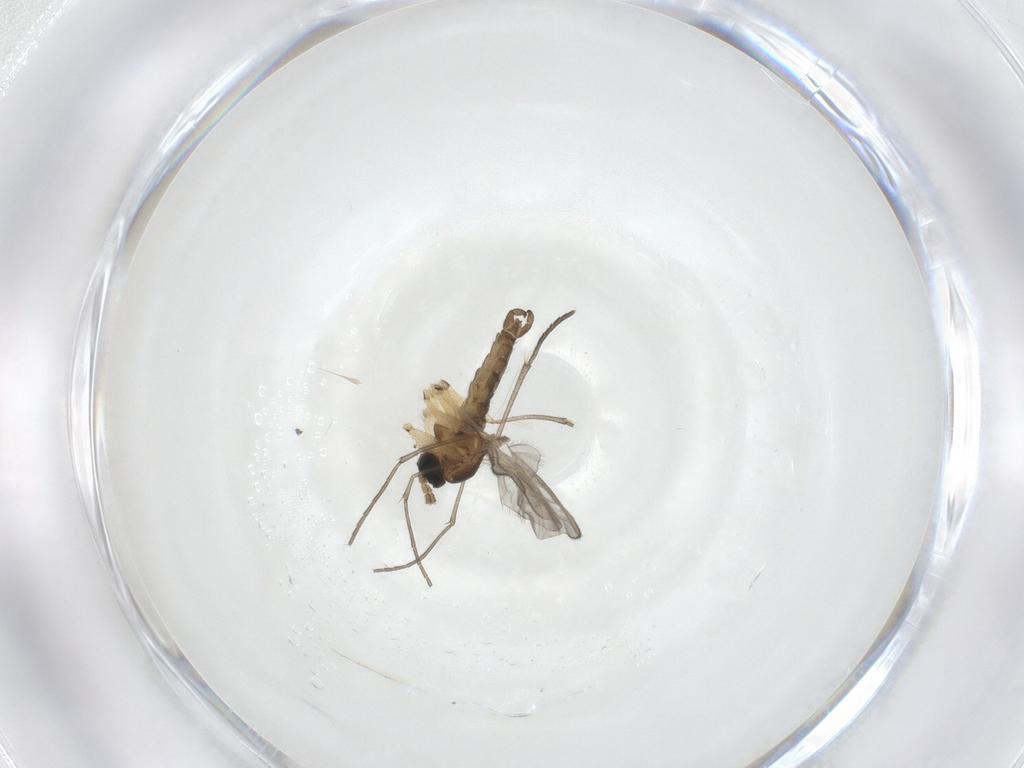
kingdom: Animalia
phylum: Arthropoda
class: Insecta
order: Diptera
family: Sciaridae
